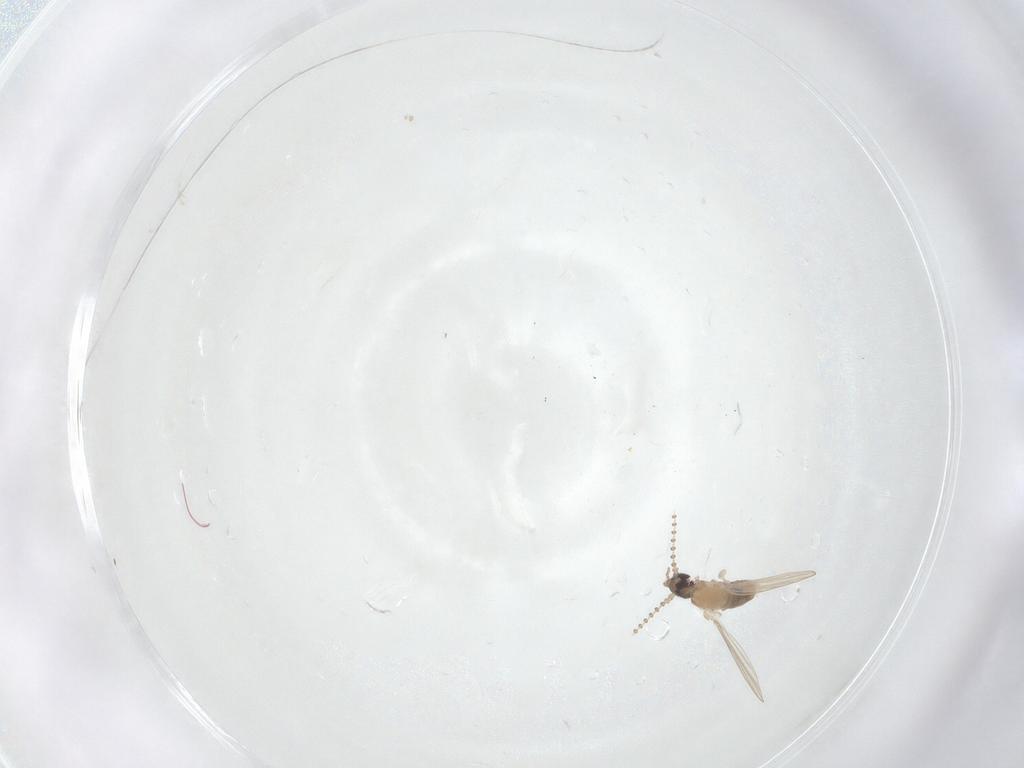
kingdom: Animalia
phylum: Arthropoda
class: Insecta
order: Diptera
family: Psychodidae
